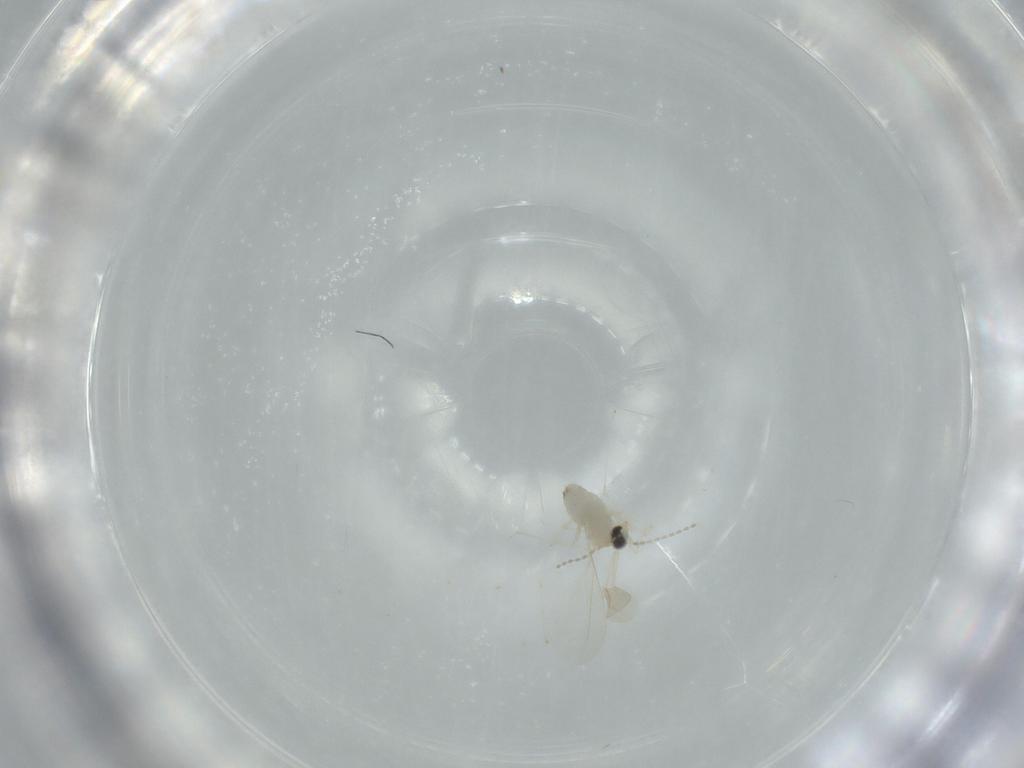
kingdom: Animalia
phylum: Arthropoda
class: Insecta
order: Diptera
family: Cecidomyiidae
